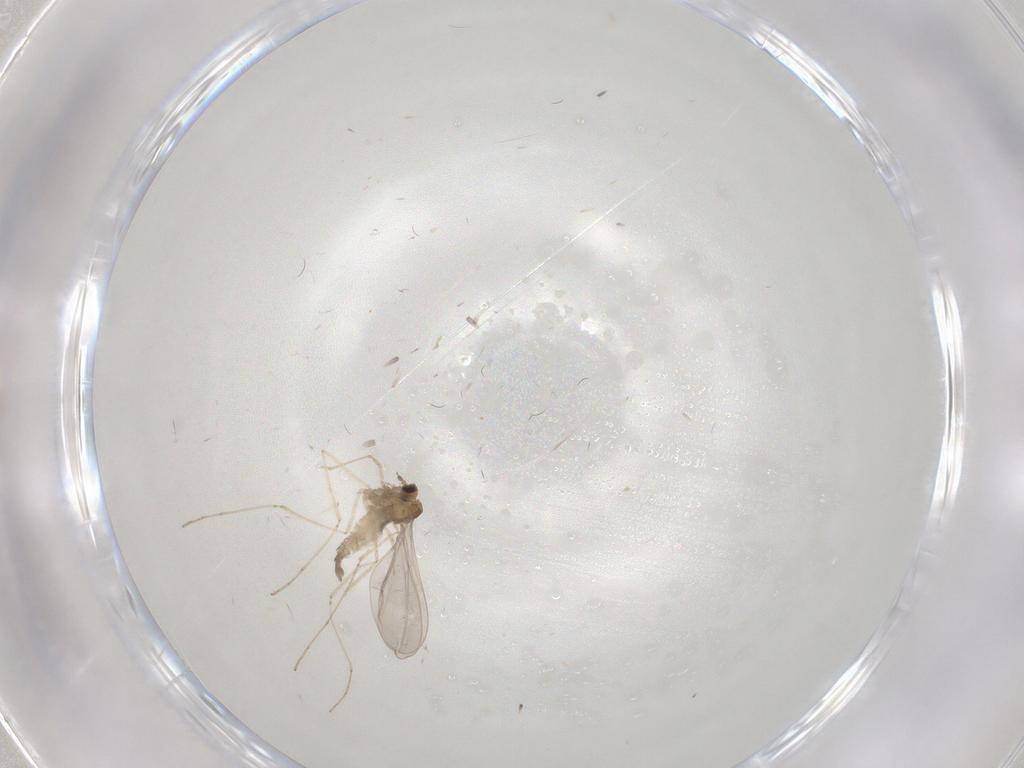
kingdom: Animalia
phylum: Arthropoda
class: Insecta
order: Diptera
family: Cecidomyiidae
